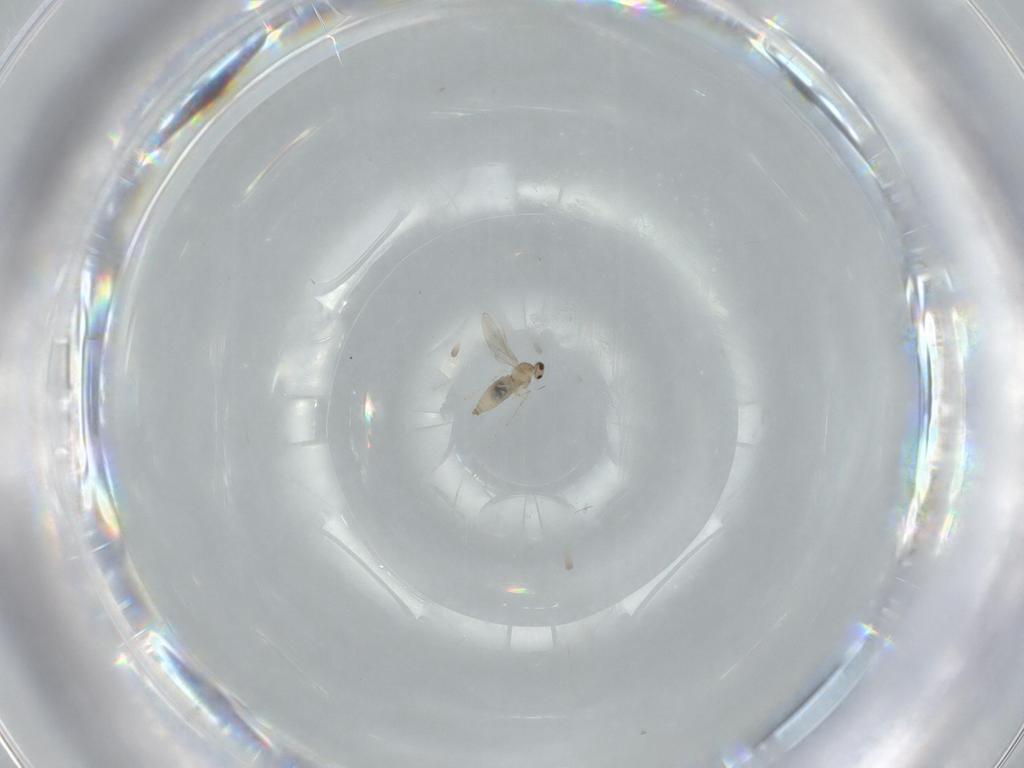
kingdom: Animalia
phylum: Arthropoda
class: Insecta
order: Diptera
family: Cecidomyiidae
